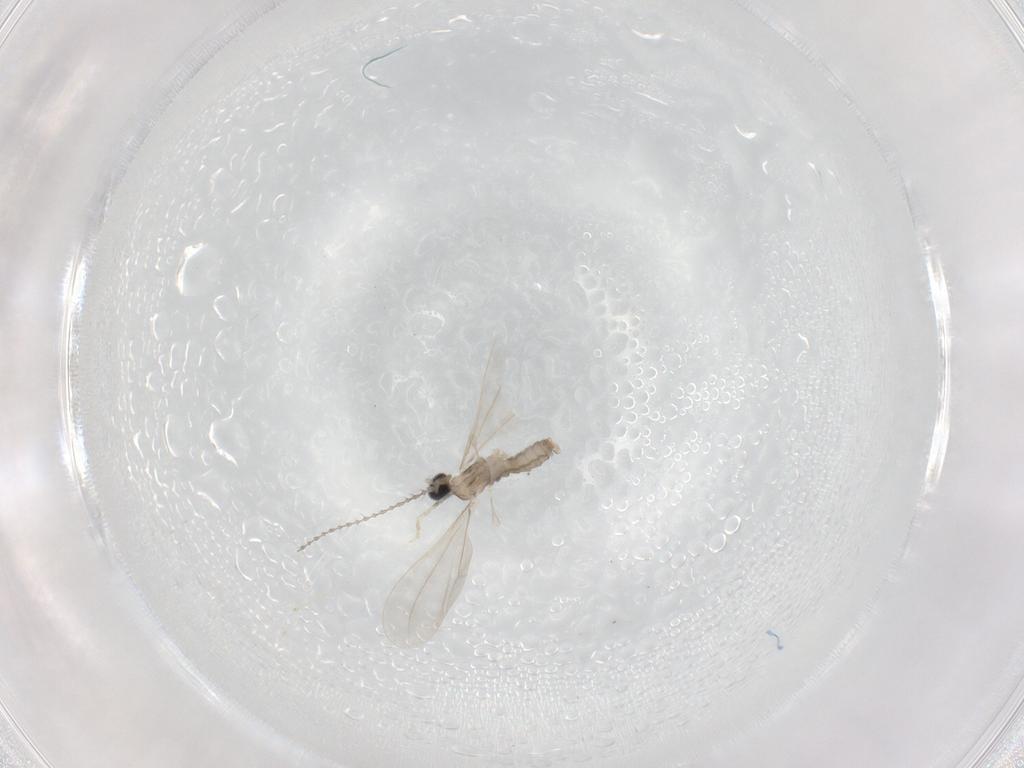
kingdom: Animalia
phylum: Arthropoda
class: Insecta
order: Diptera
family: Cecidomyiidae
